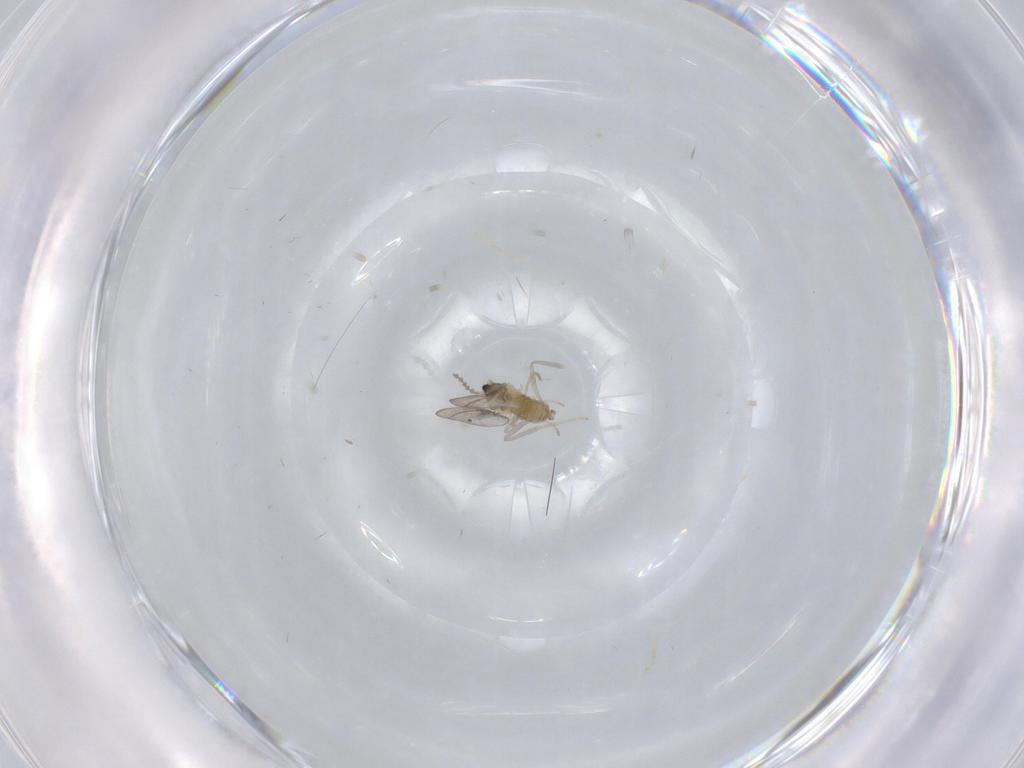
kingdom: Animalia
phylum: Arthropoda
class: Insecta
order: Diptera
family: Cecidomyiidae
